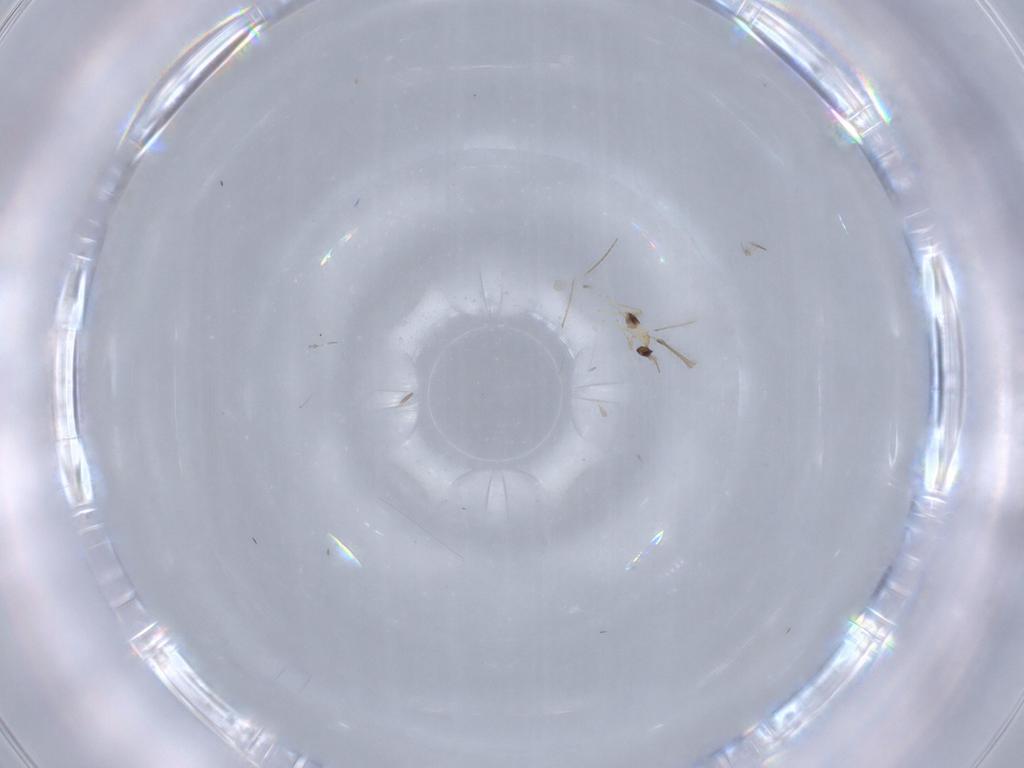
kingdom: Animalia
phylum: Arthropoda
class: Insecta
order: Hymenoptera
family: Mymaridae
